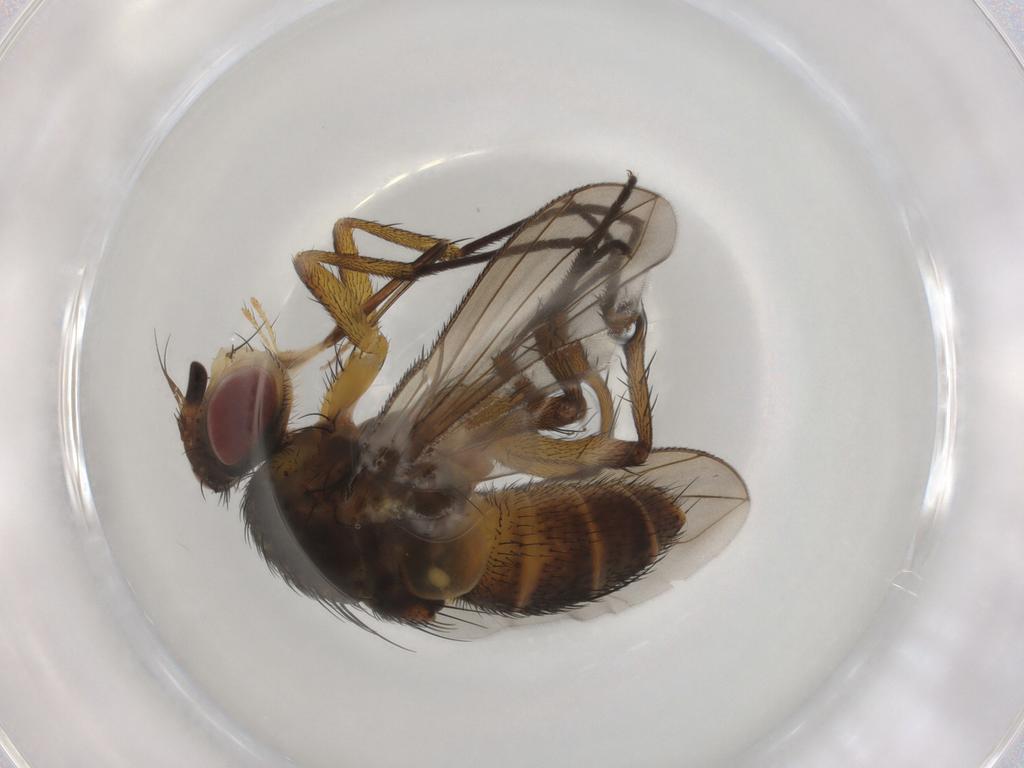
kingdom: Animalia
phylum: Arthropoda
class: Insecta
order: Diptera
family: Tachinidae
